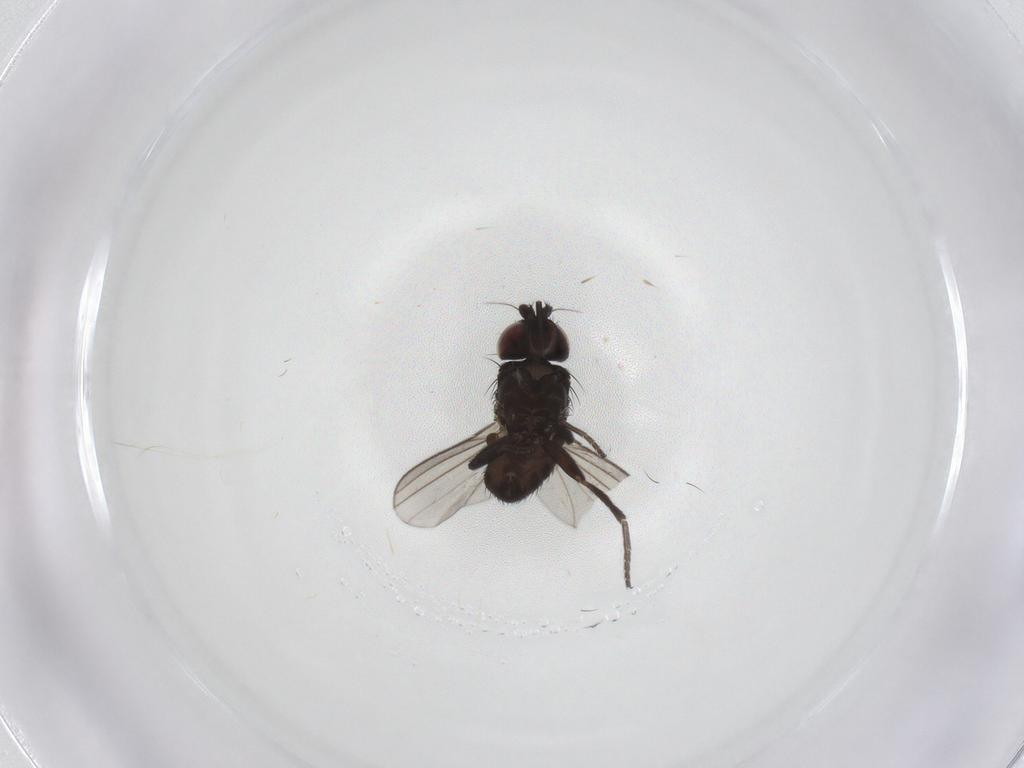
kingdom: Animalia
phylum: Arthropoda
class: Insecta
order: Diptera
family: Milichiidae
